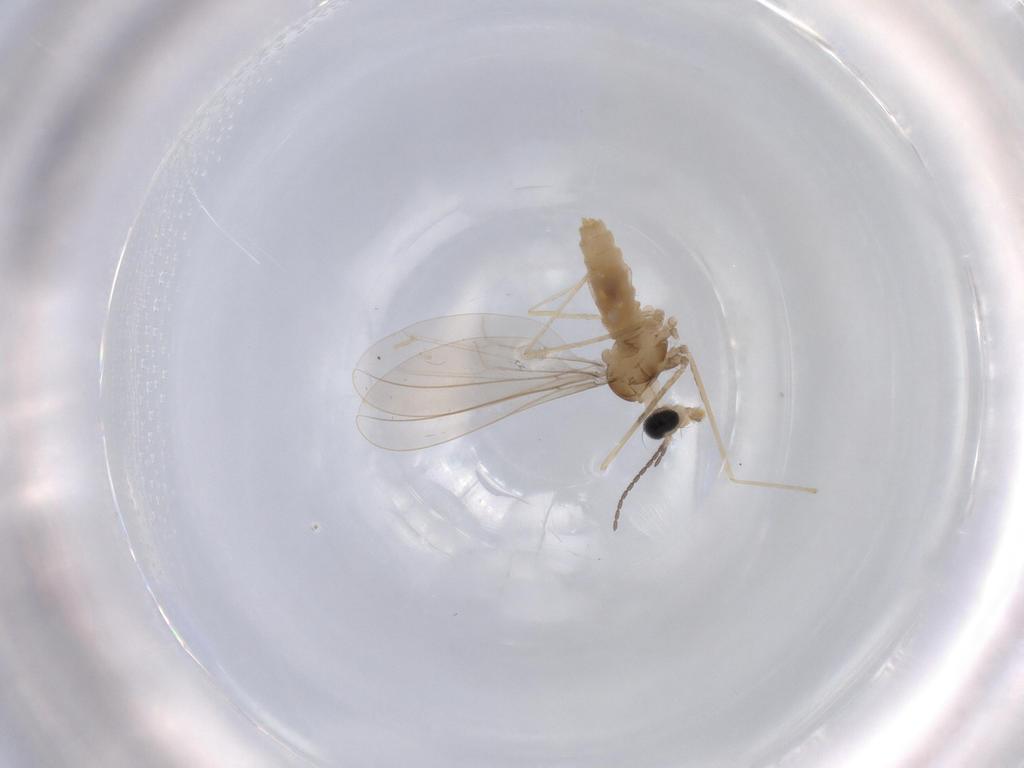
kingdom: Animalia
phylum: Arthropoda
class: Insecta
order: Diptera
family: Cecidomyiidae
